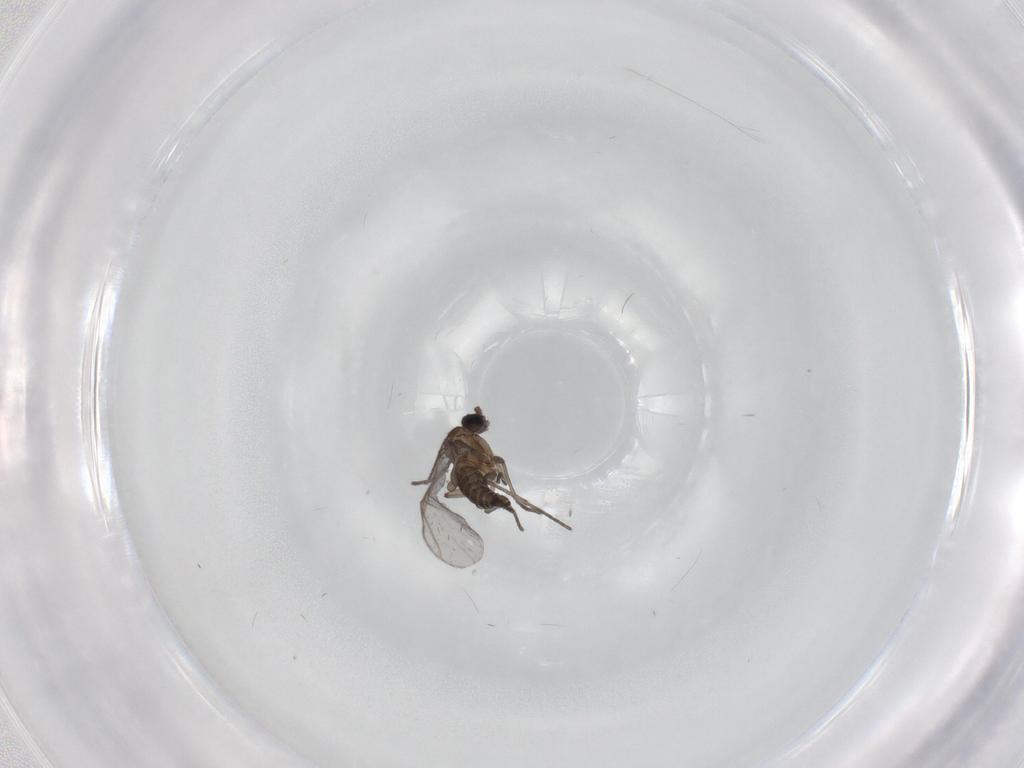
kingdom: Animalia
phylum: Arthropoda
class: Insecta
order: Diptera
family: Sciaridae
